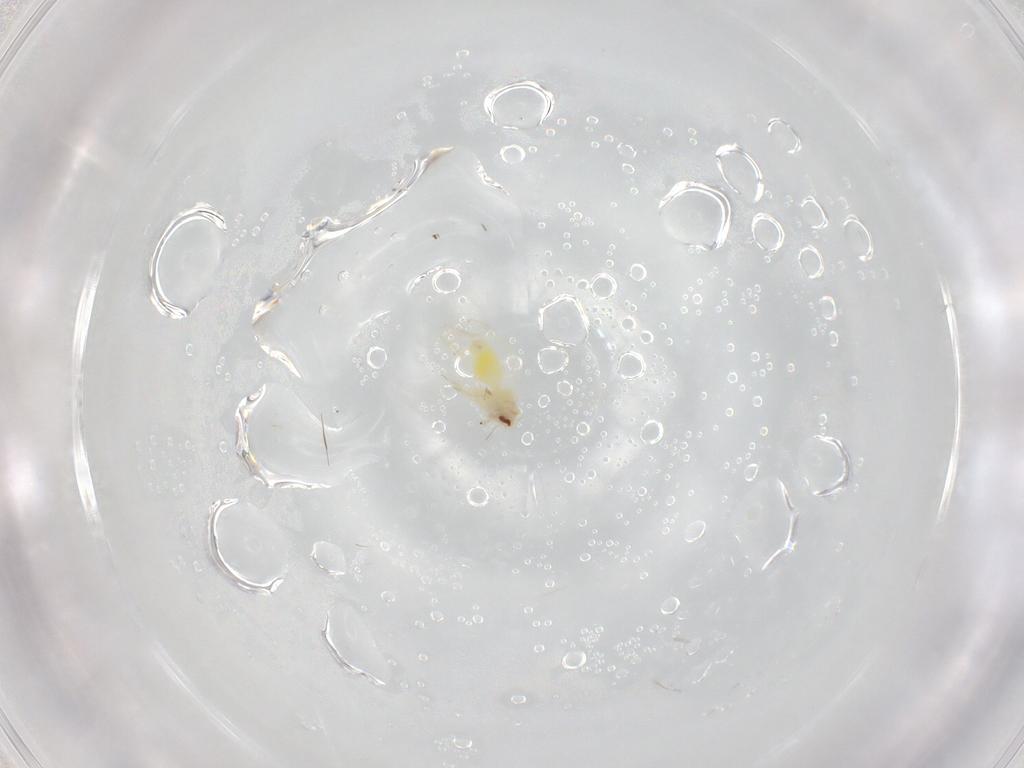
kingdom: Animalia
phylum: Arthropoda
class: Insecta
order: Hemiptera
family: Aleyrodidae
